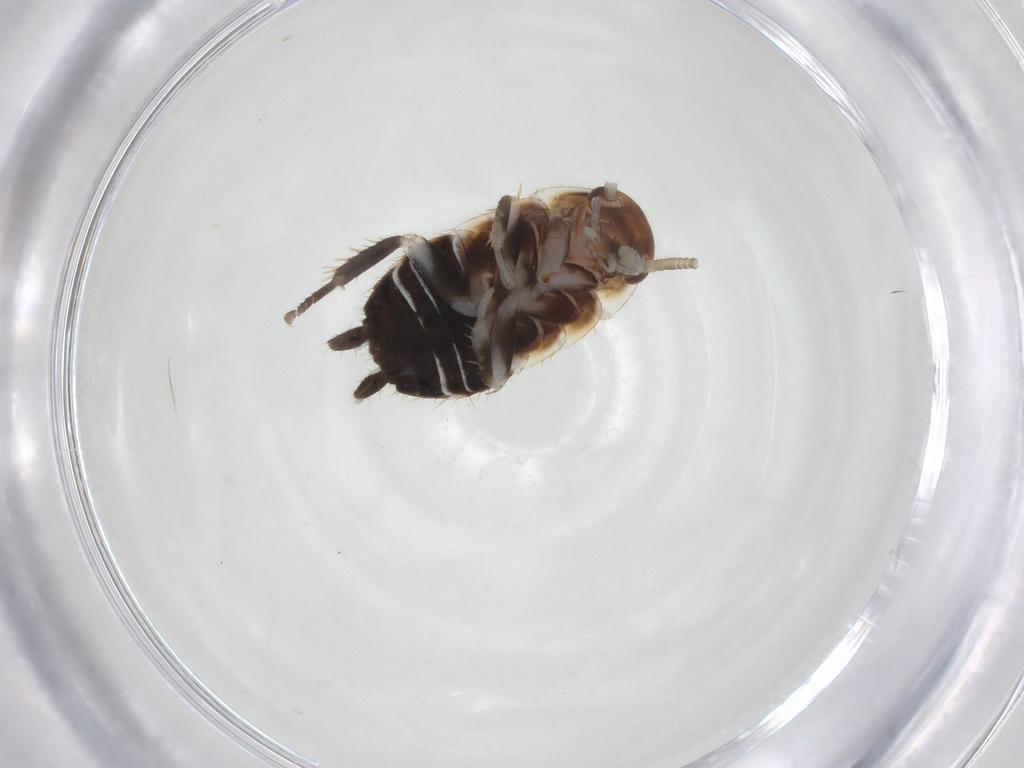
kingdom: Animalia
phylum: Arthropoda
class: Insecta
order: Blattodea
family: Ectobiidae
